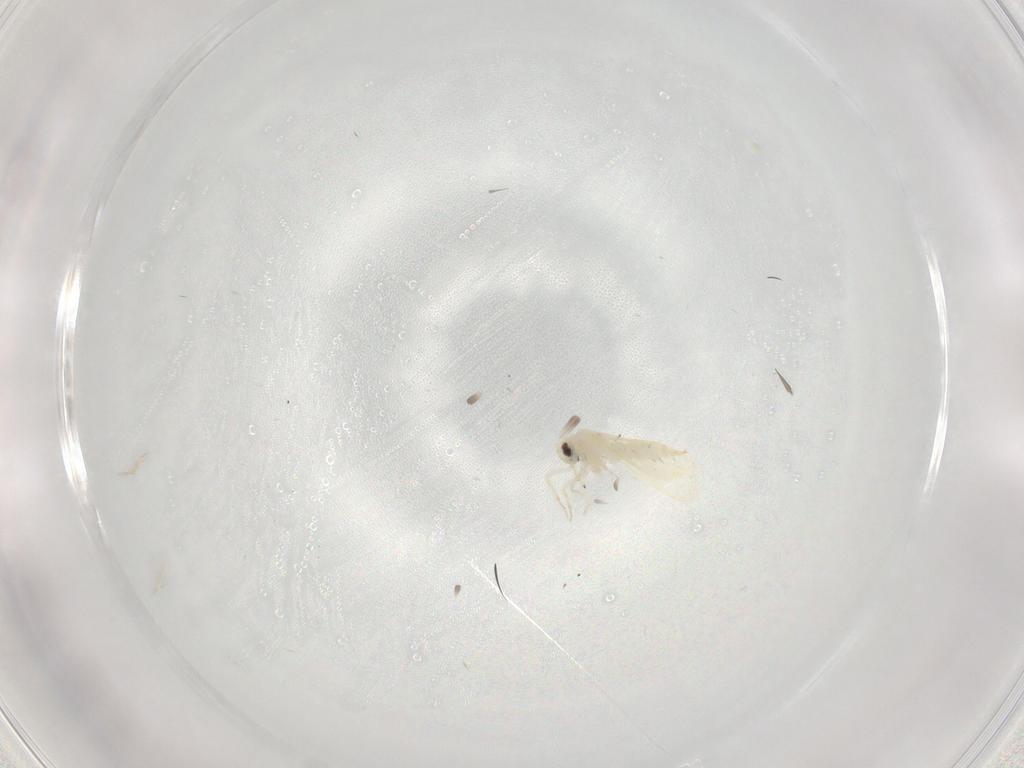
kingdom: Animalia
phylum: Arthropoda
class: Insecta
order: Hemiptera
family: Aleyrodidae
